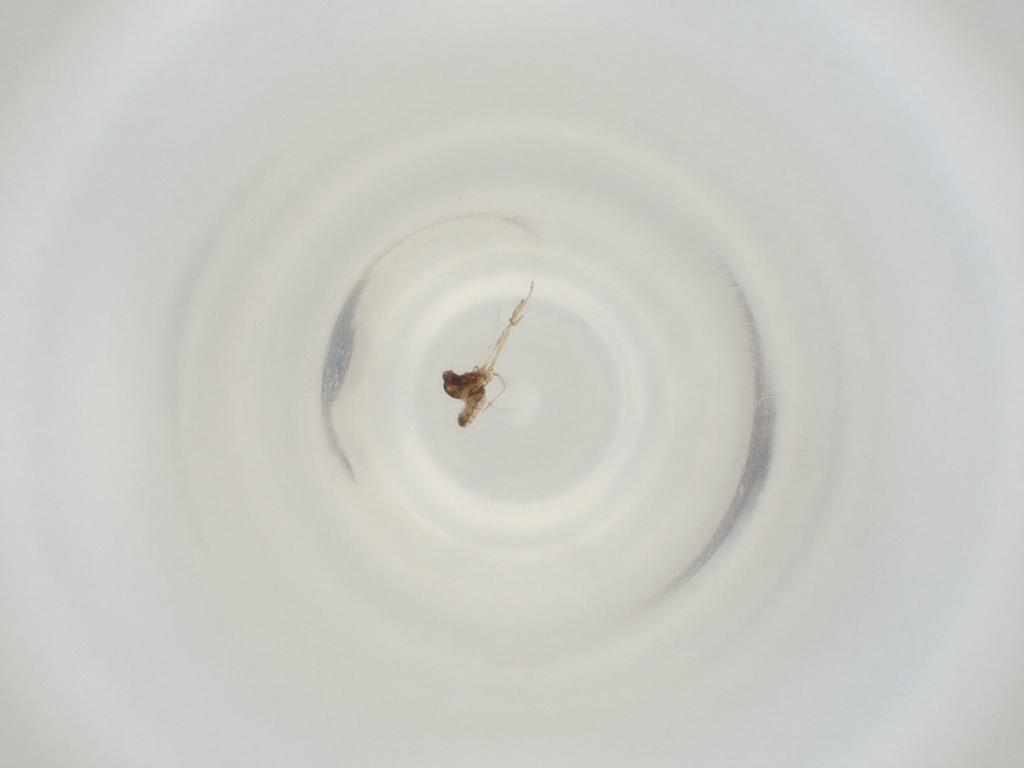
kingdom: Animalia
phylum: Arthropoda
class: Insecta
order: Diptera
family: Cecidomyiidae
